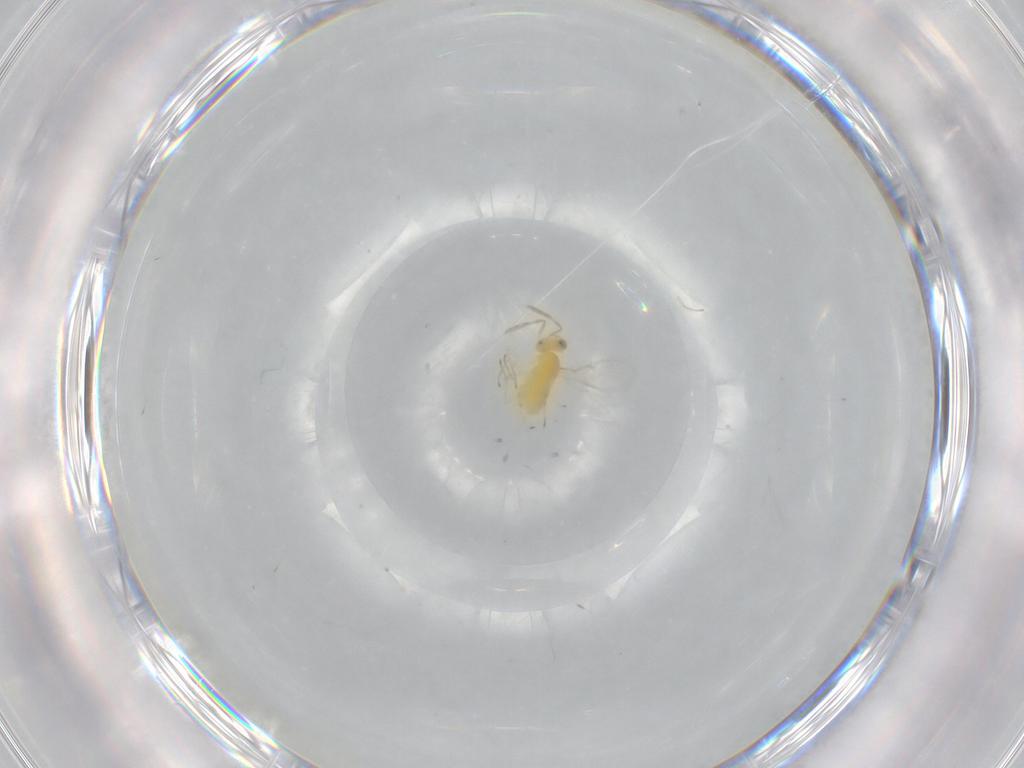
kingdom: Animalia
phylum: Arthropoda
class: Insecta
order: Hymenoptera
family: Aphelinidae
